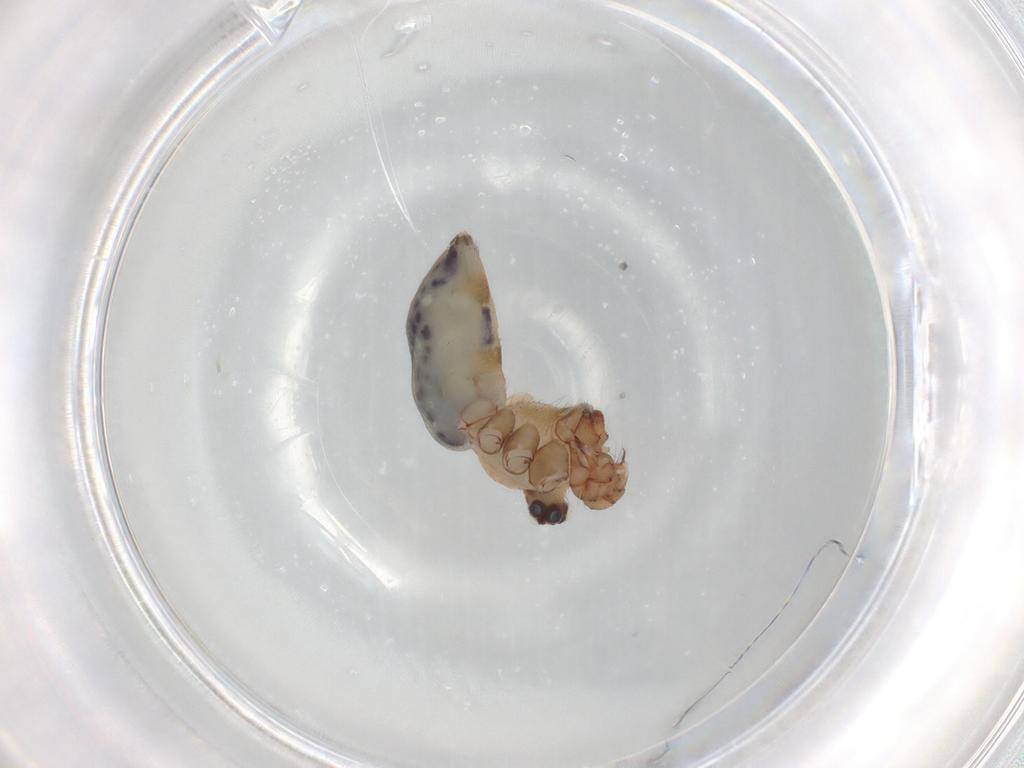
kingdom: Animalia
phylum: Arthropoda
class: Arachnida
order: Araneae
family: Pholcidae
